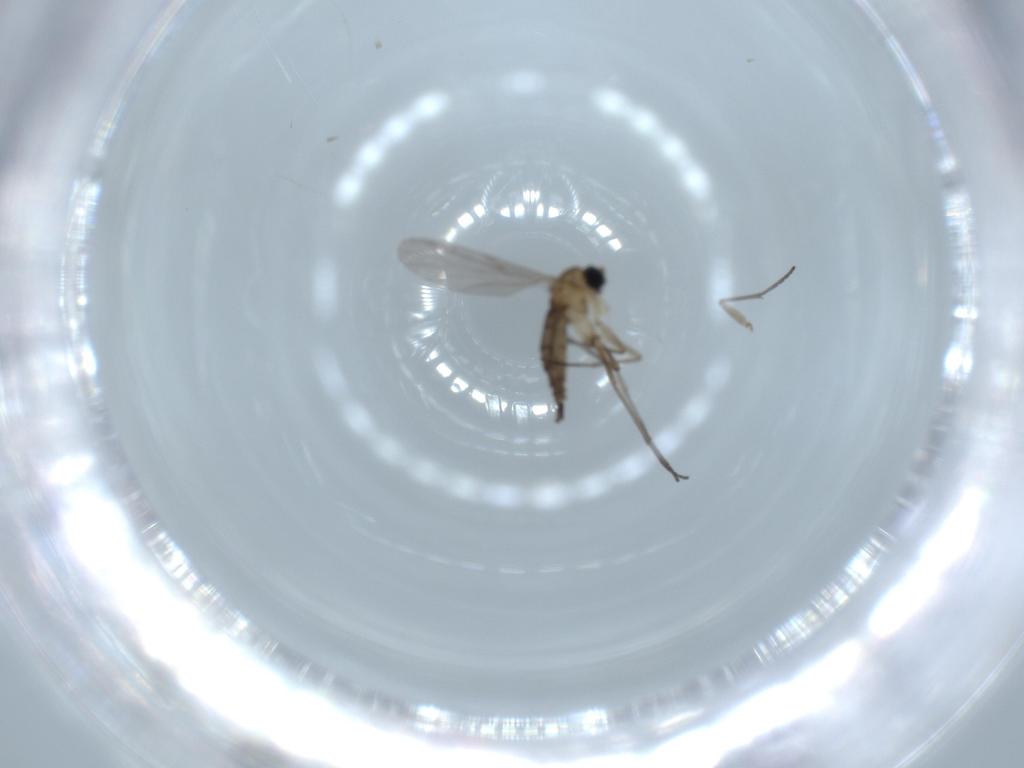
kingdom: Animalia
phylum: Arthropoda
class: Insecta
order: Diptera
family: Sciaridae
